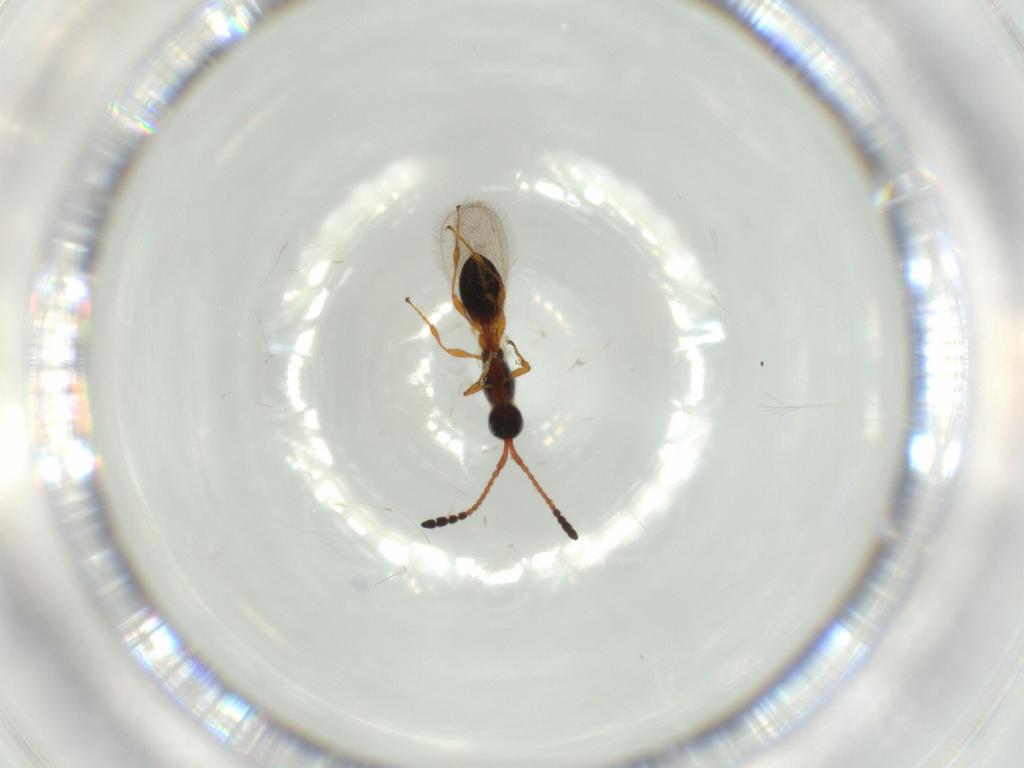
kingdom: Animalia
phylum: Arthropoda
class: Insecta
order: Hymenoptera
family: Diapriidae
